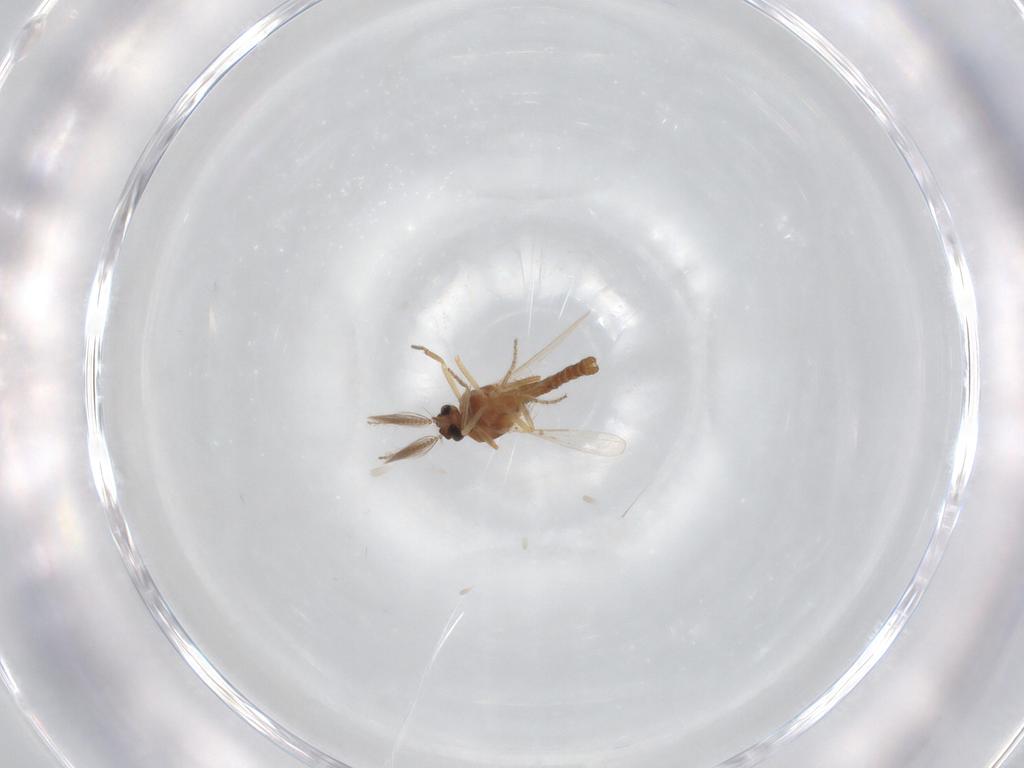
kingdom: Animalia
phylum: Arthropoda
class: Insecta
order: Diptera
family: Ceratopogonidae
